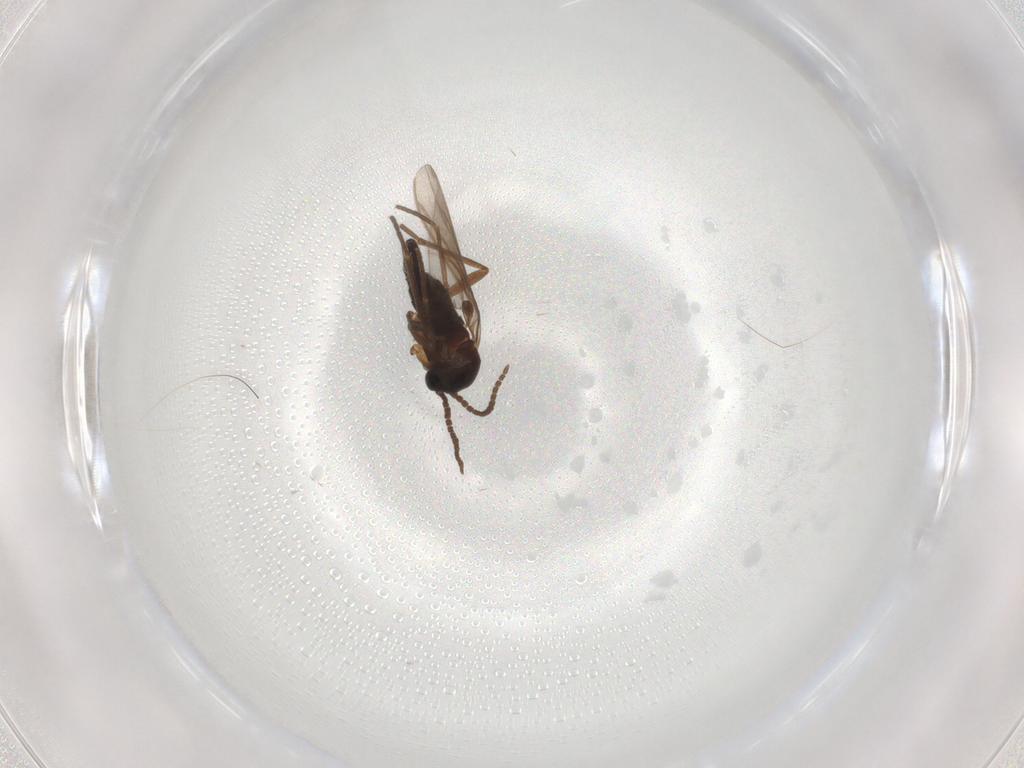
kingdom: Animalia
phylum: Arthropoda
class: Insecta
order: Diptera
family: Sciaridae
